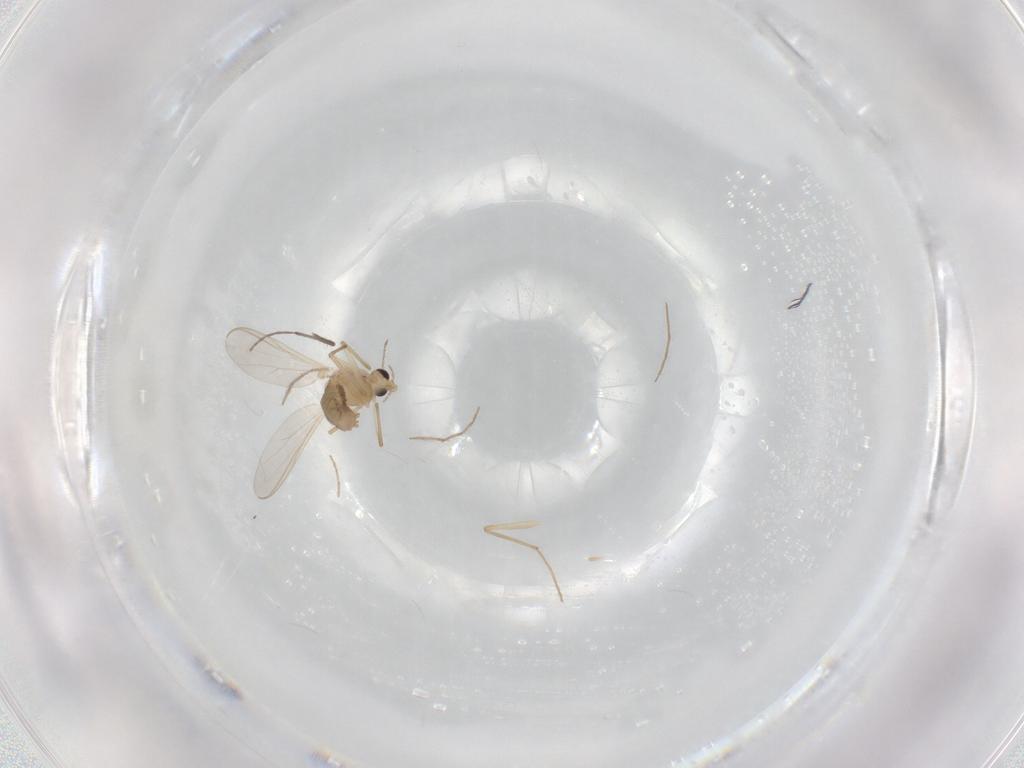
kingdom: Animalia
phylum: Arthropoda
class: Insecta
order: Diptera
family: Chironomidae
